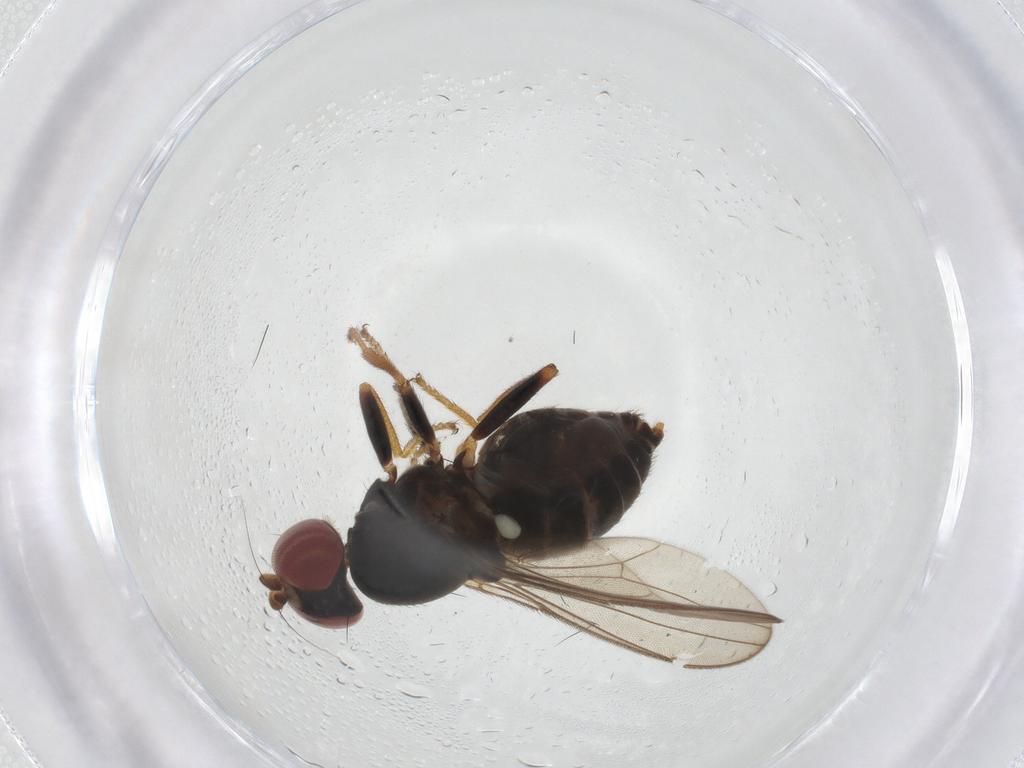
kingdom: Animalia
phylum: Arthropoda
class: Insecta
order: Diptera
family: Aulacigastridae
